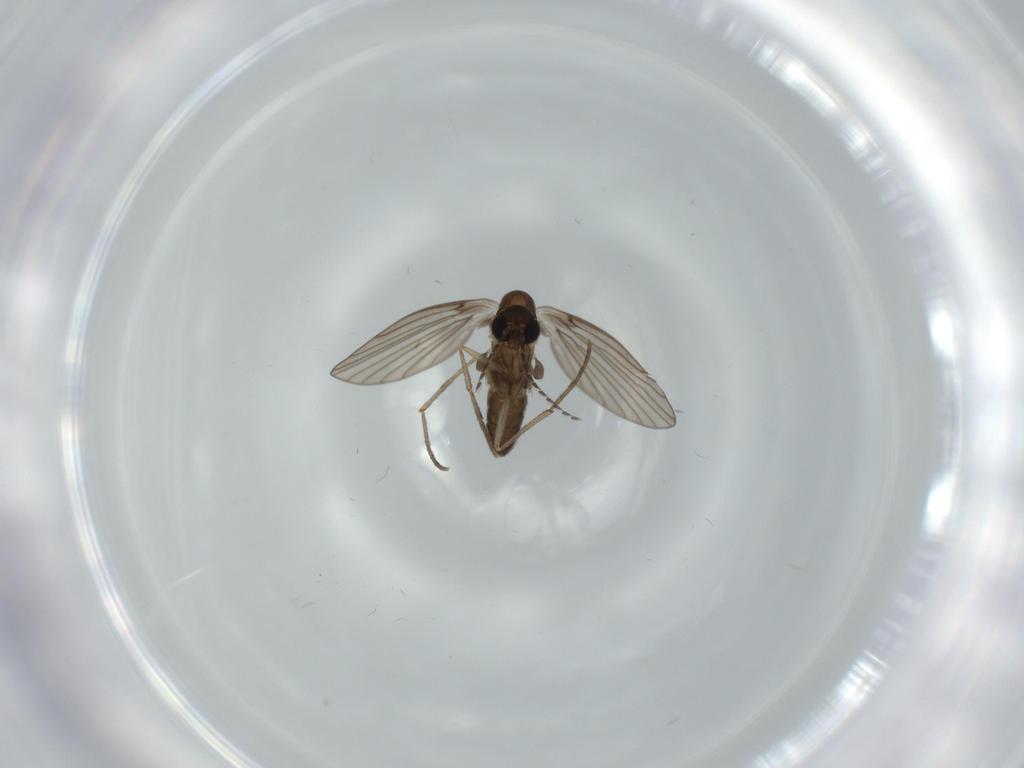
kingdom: Animalia
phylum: Arthropoda
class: Insecta
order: Diptera
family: Psychodidae
